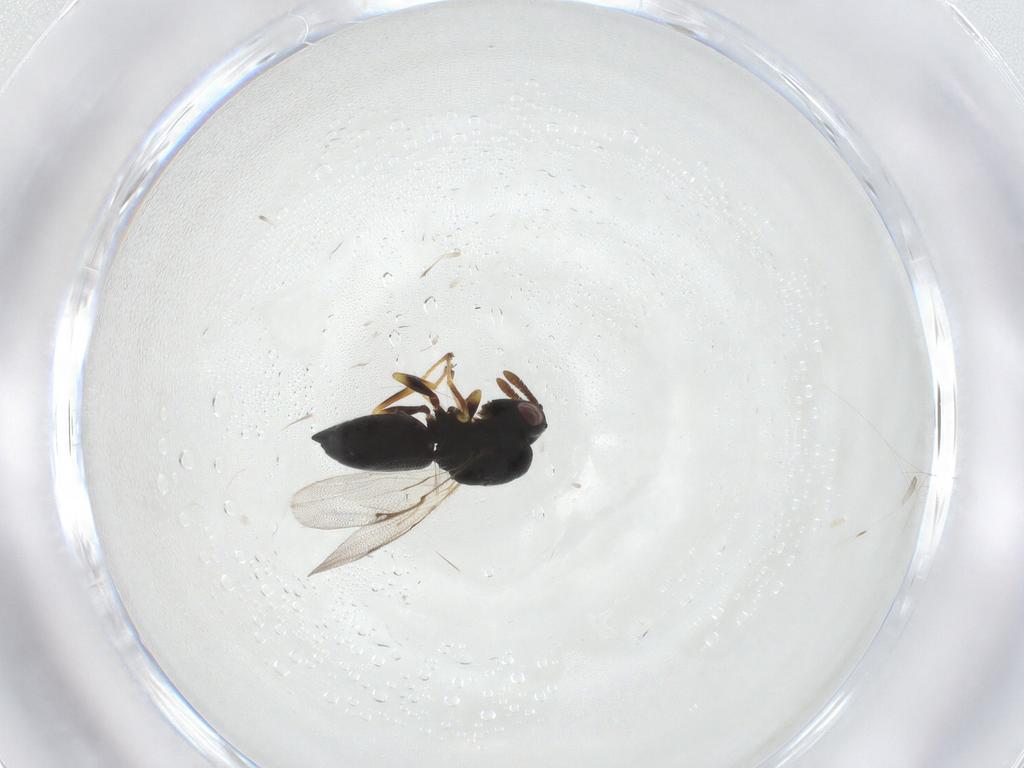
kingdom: Animalia
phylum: Arthropoda
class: Insecta
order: Hymenoptera
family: Eurytomidae
